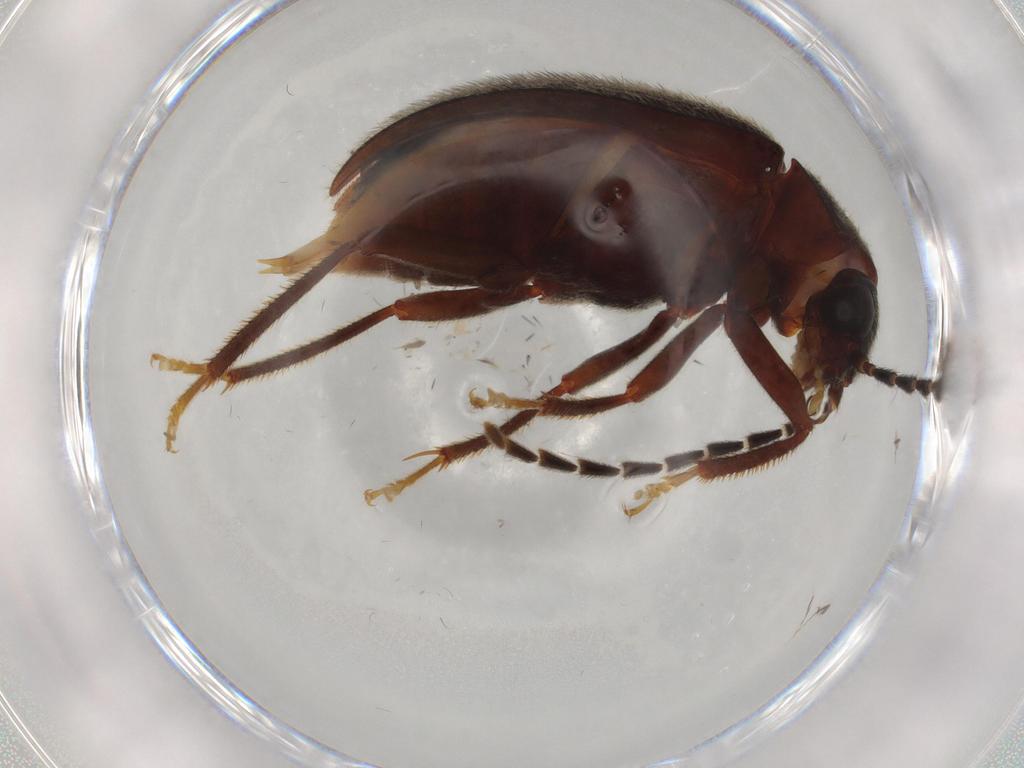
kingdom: Animalia
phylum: Arthropoda
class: Insecta
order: Coleoptera
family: Ptilodactylidae
